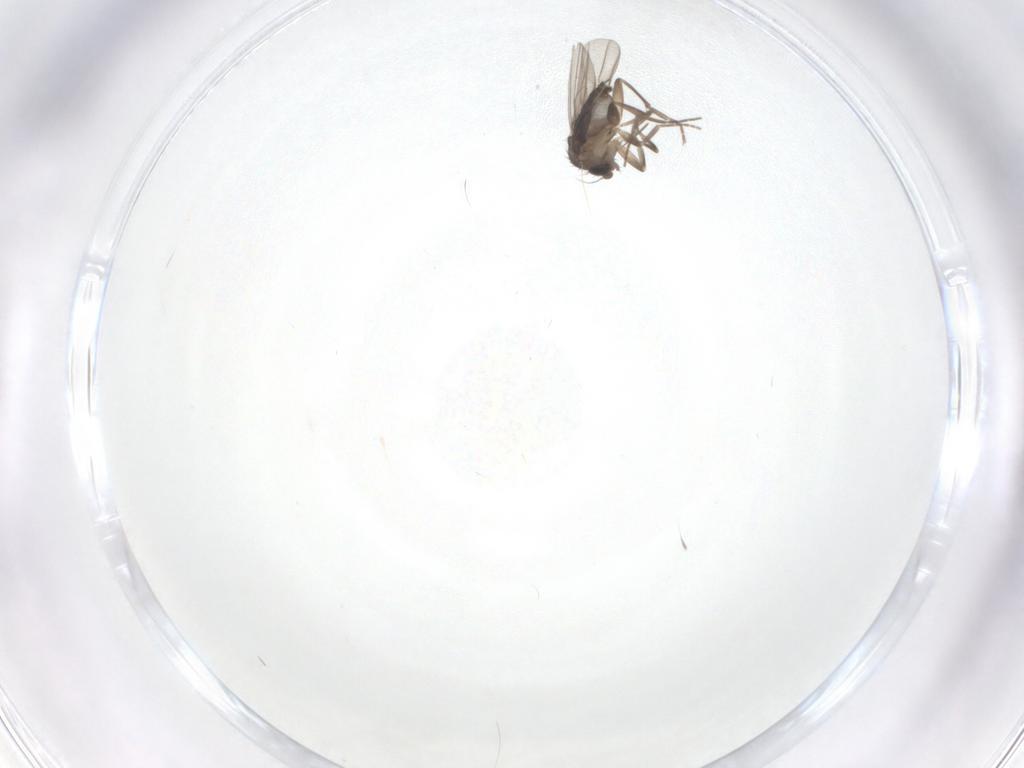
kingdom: Animalia
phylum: Arthropoda
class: Insecta
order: Diptera
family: Phoridae
